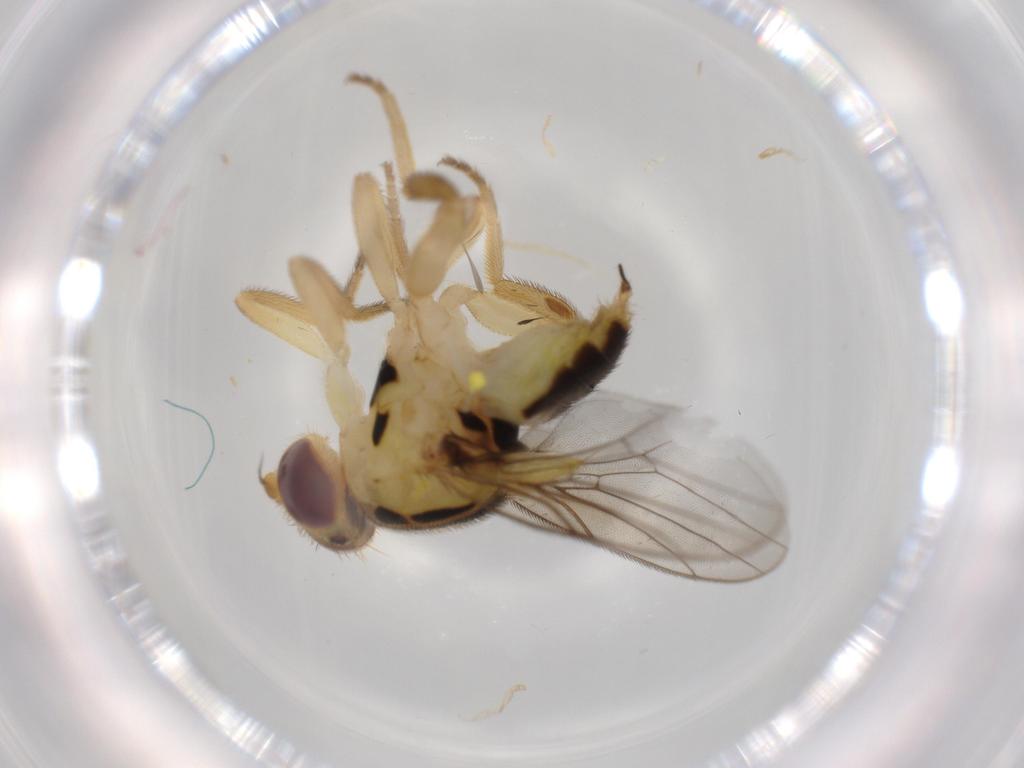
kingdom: Animalia
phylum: Arthropoda
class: Insecta
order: Diptera
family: Chloropidae
